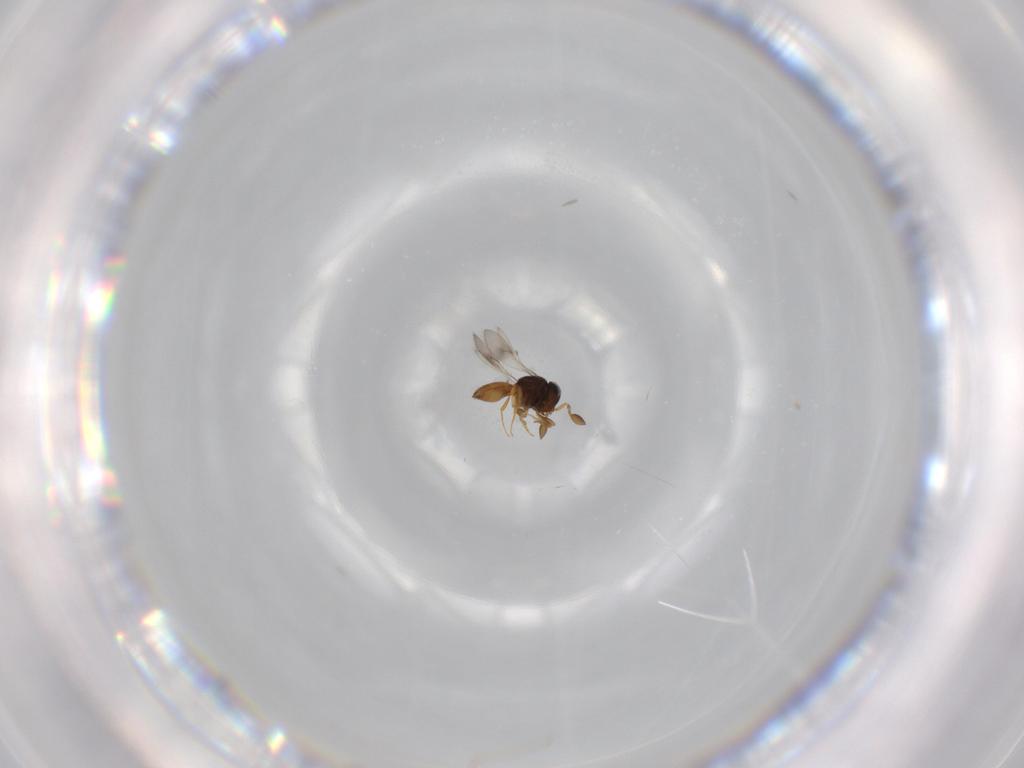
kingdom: Animalia
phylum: Arthropoda
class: Insecta
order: Hymenoptera
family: Scelionidae
